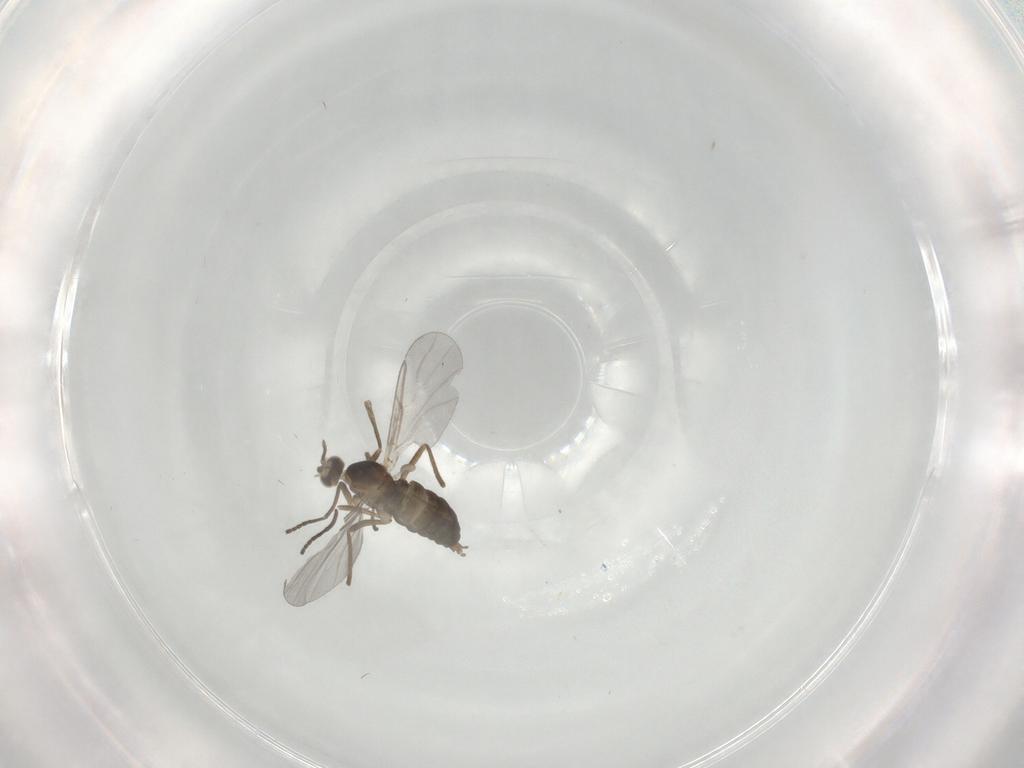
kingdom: Animalia
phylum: Arthropoda
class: Insecta
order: Diptera
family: Cecidomyiidae
